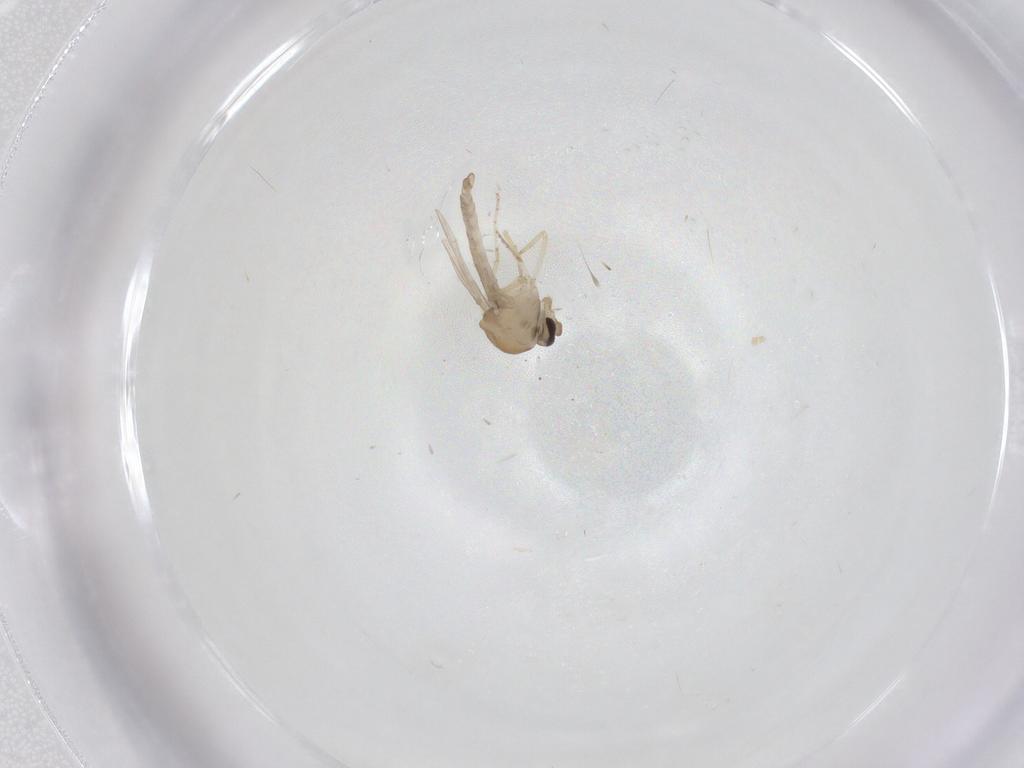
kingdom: Animalia
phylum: Arthropoda
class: Insecta
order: Diptera
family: Ceratopogonidae
